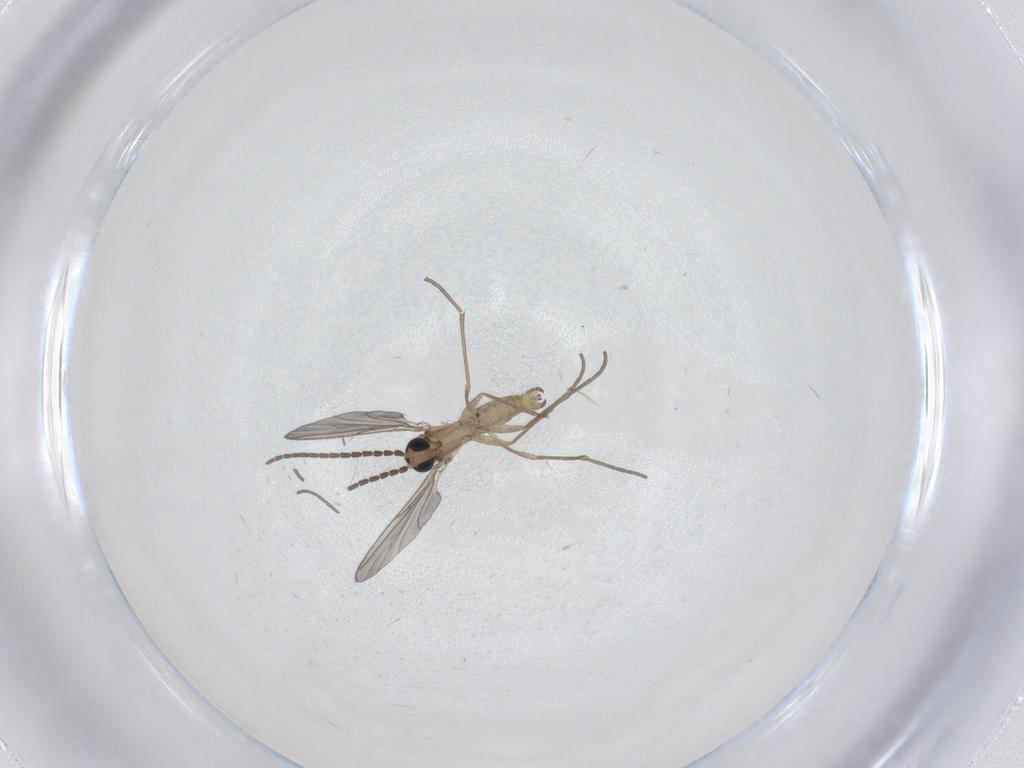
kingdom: Animalia
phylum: Arthropoda
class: Insecta
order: Diptera
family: Sciaridae
